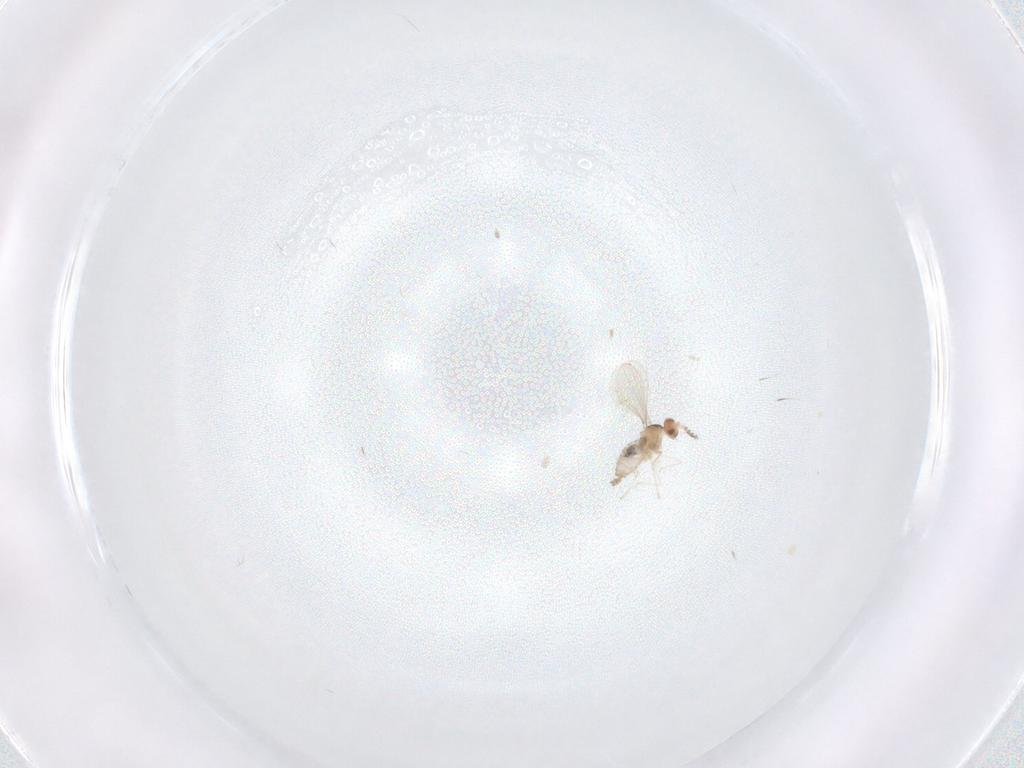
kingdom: Animalia
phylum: Arthropoda
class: Insecta
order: Diptera
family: Cecidomyiidae
